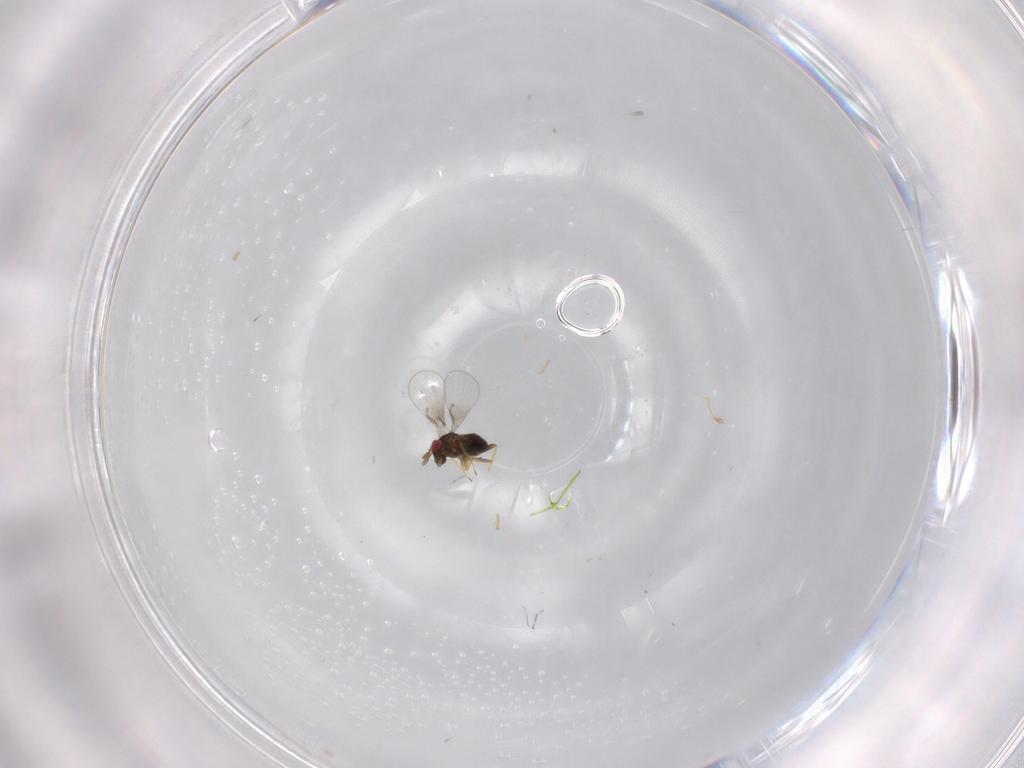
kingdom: Animalia
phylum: Arthropoda
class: Insecta
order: Hymenoptera
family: Trichogrammatidae
